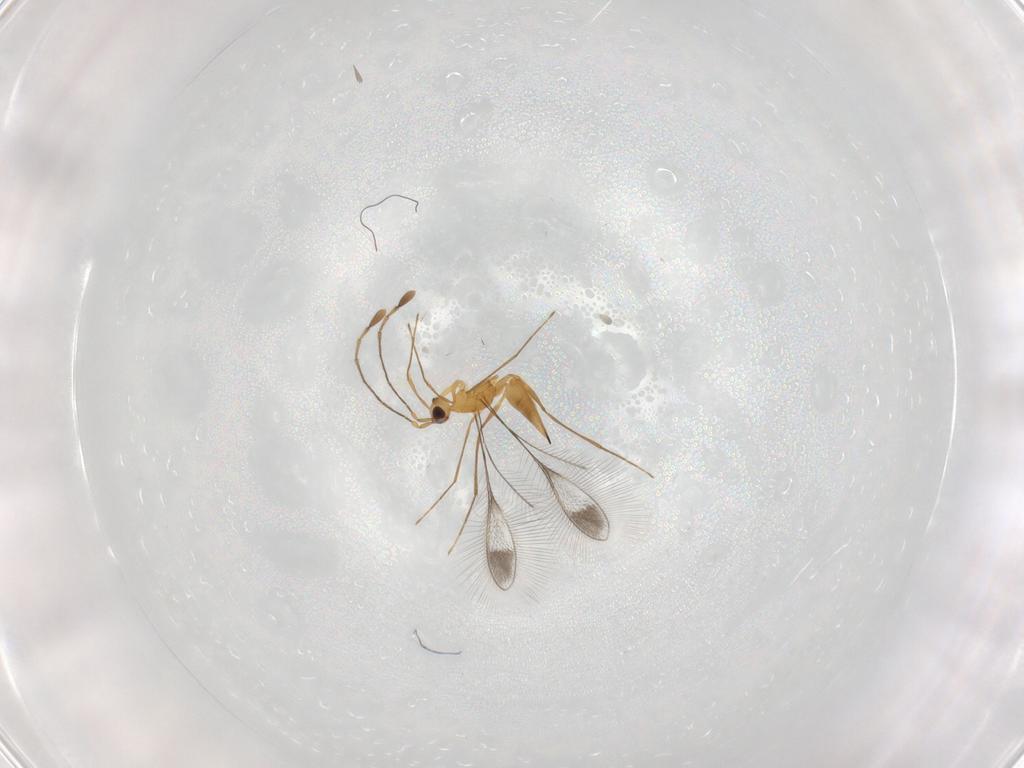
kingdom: Animalia
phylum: Arthropoda
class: Insecta
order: Hymenoptera
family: Mymaridae
